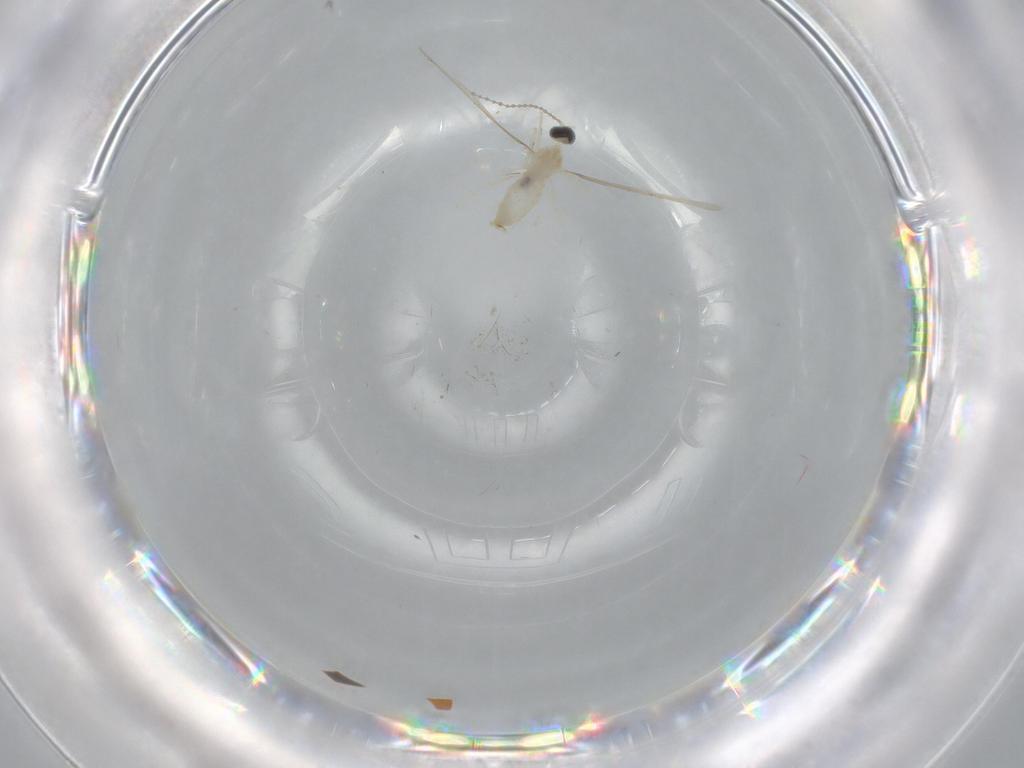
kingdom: Animalia
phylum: Arthropoda
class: Insecta
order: Diptera
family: Cecidomyiidae
